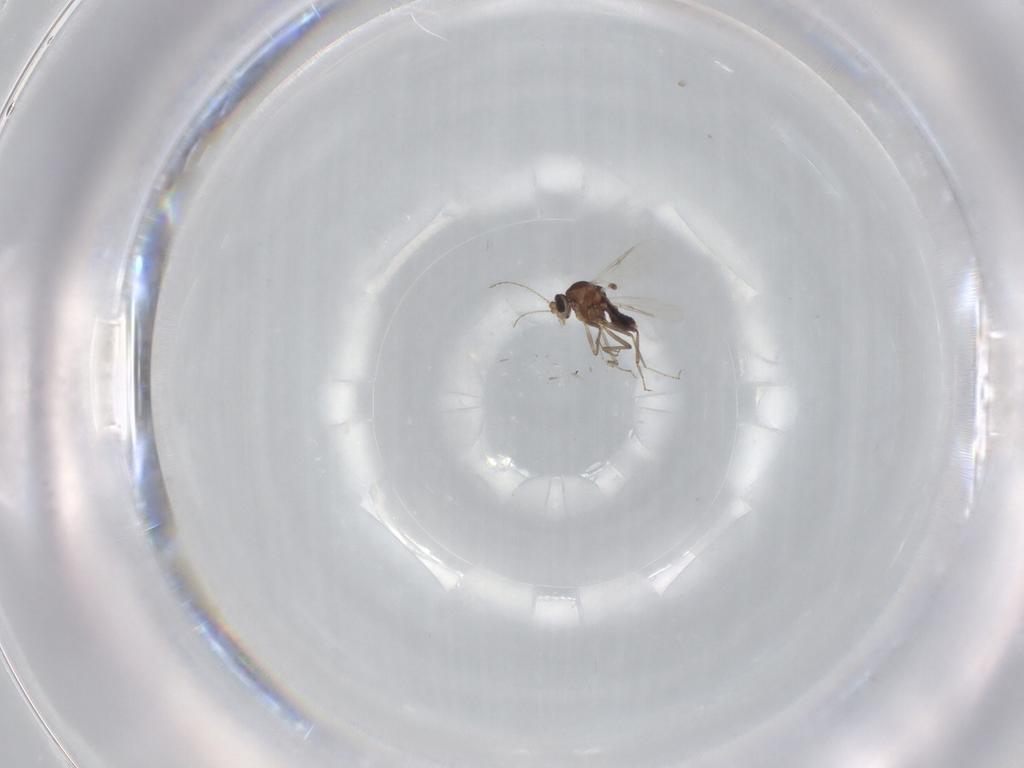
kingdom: Animalia
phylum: Arthropoda
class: Insecta
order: Diptera
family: Ceratopogonidae
